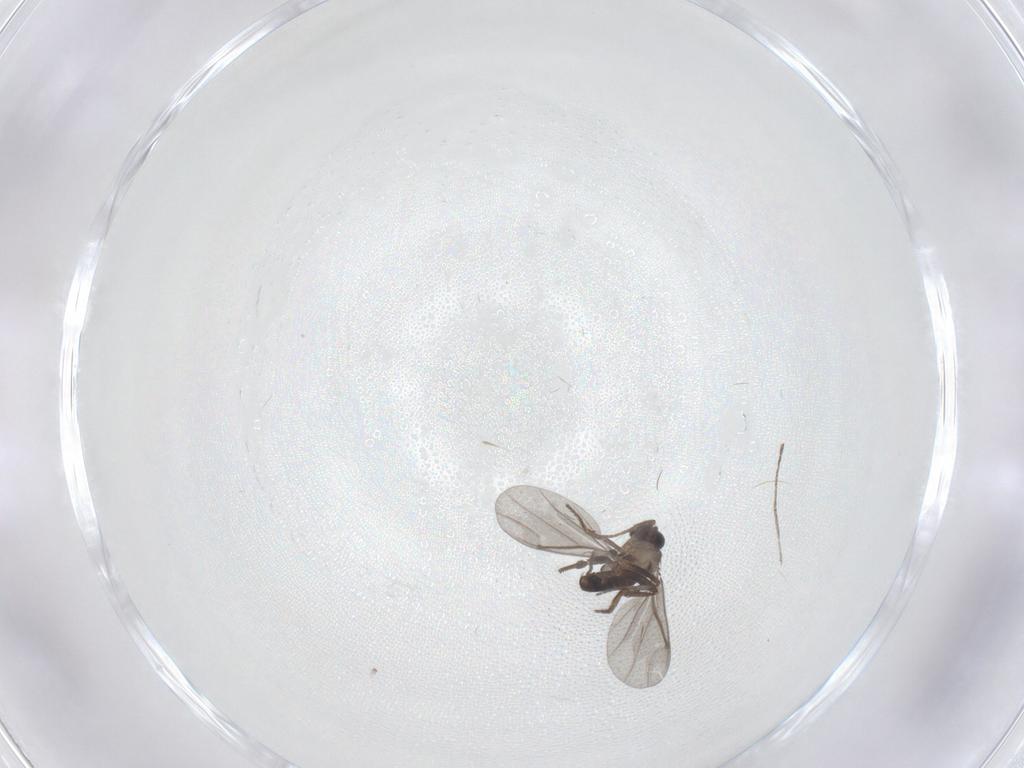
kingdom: Animalia
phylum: Arthropoda
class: Insecta
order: Diptera
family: Cecidomyiidae
